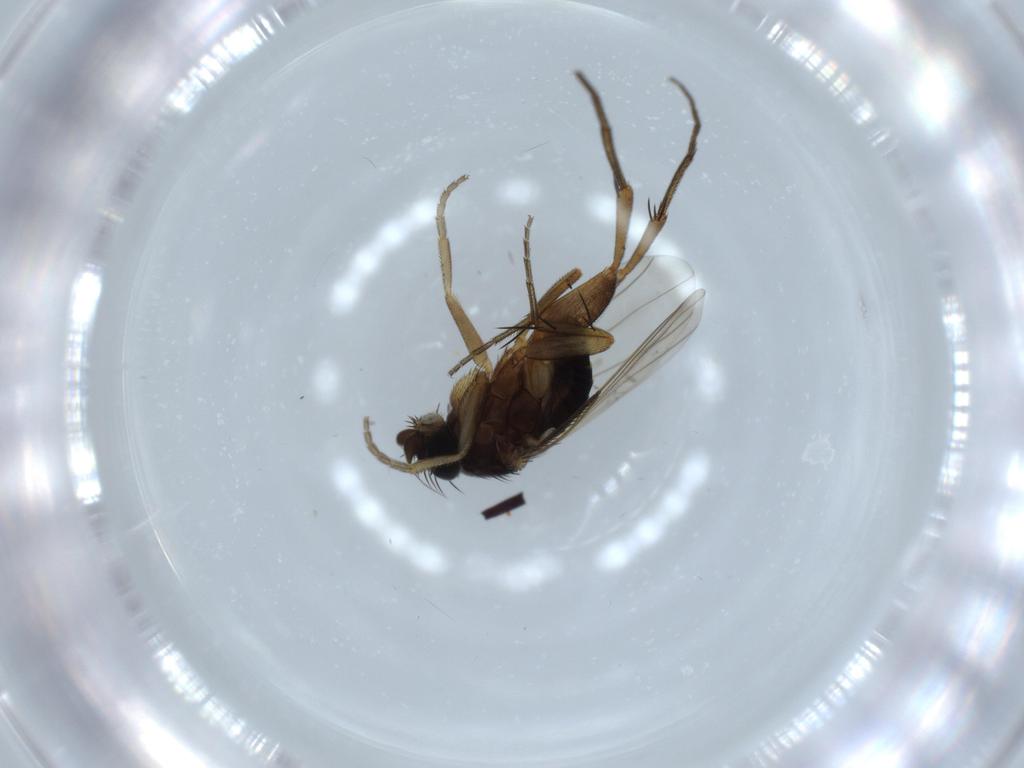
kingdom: Animalia
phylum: Arthropoda
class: Insecta
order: Diptera
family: Phoridae
